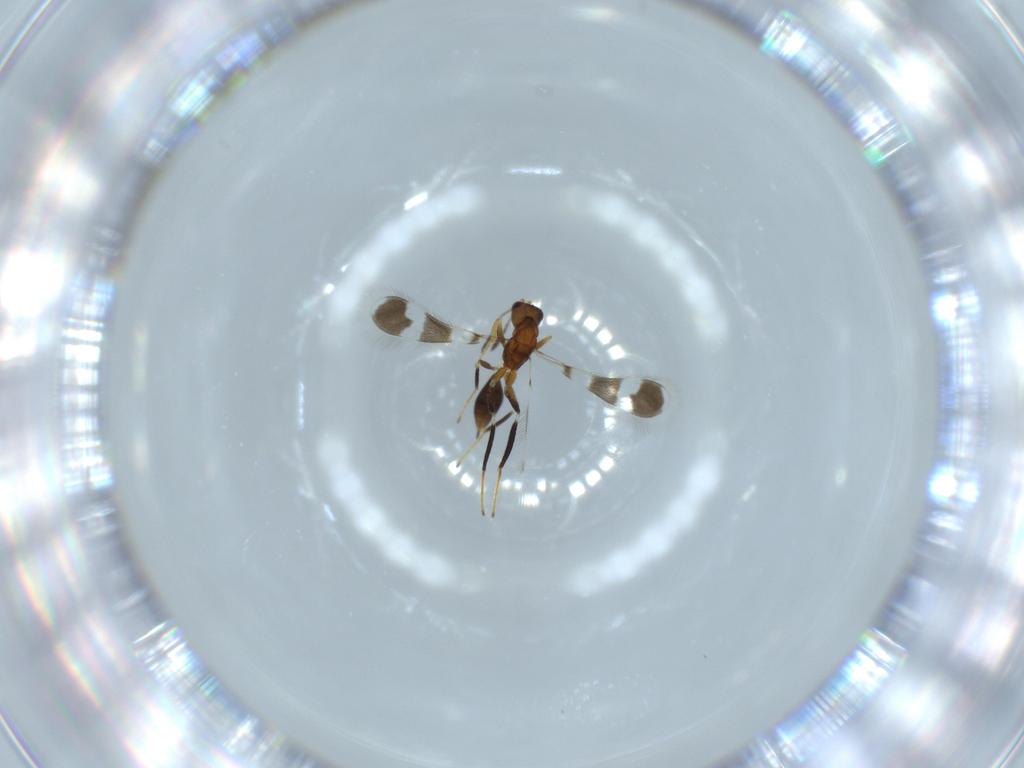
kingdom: Animalia
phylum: Arthropoda
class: Insecta
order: Hymenoptera
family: Mymaridae
